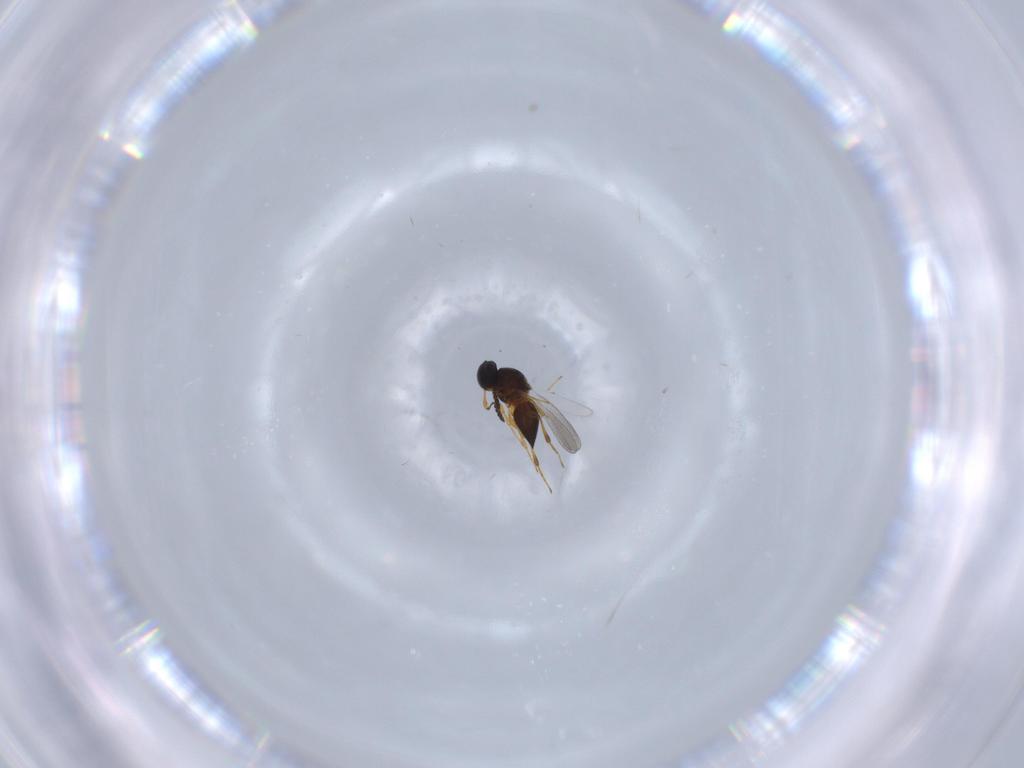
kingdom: Animalia
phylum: Arthropoda
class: Insecta
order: Hymenoptera
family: Platygastridae
